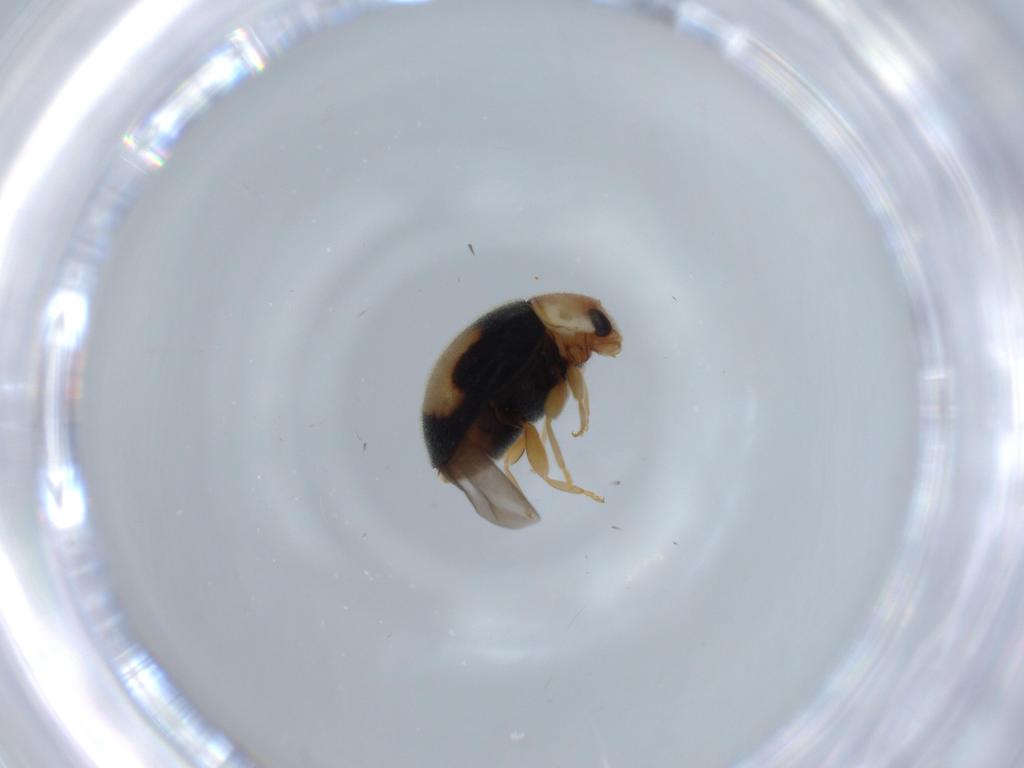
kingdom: Animalia
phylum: Arthropoda
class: Insecta
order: Coleoptera
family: Coccinellidae
